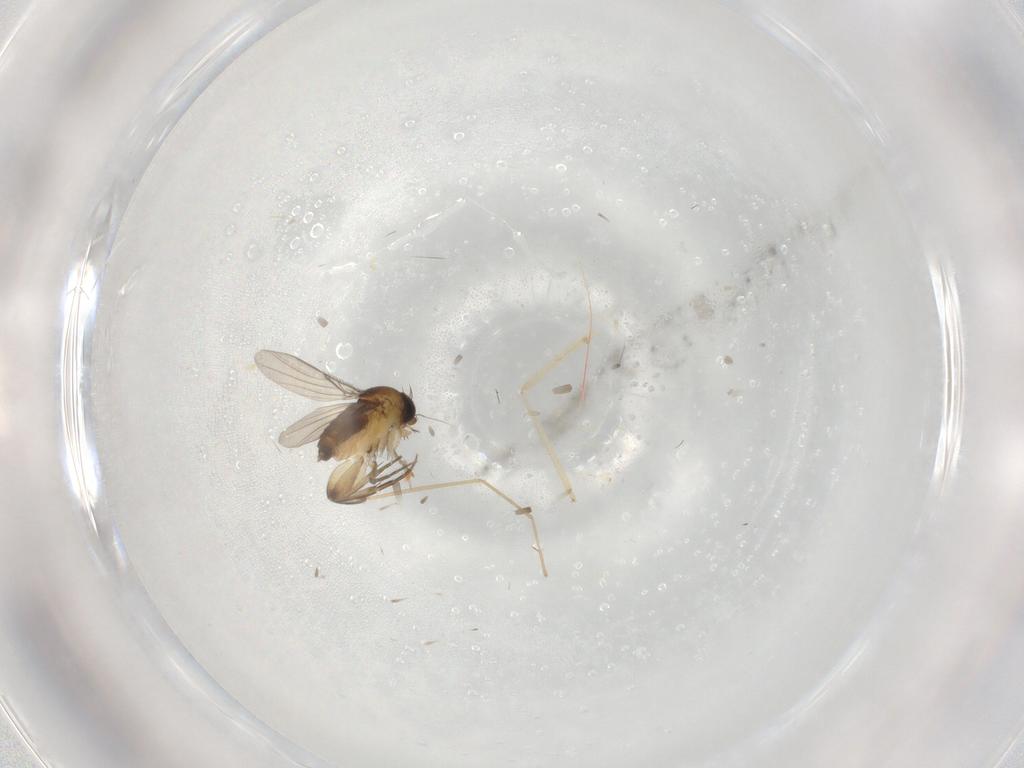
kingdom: Animalia
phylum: Arthropoda
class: Insecta
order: Diptera
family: Phoridae
